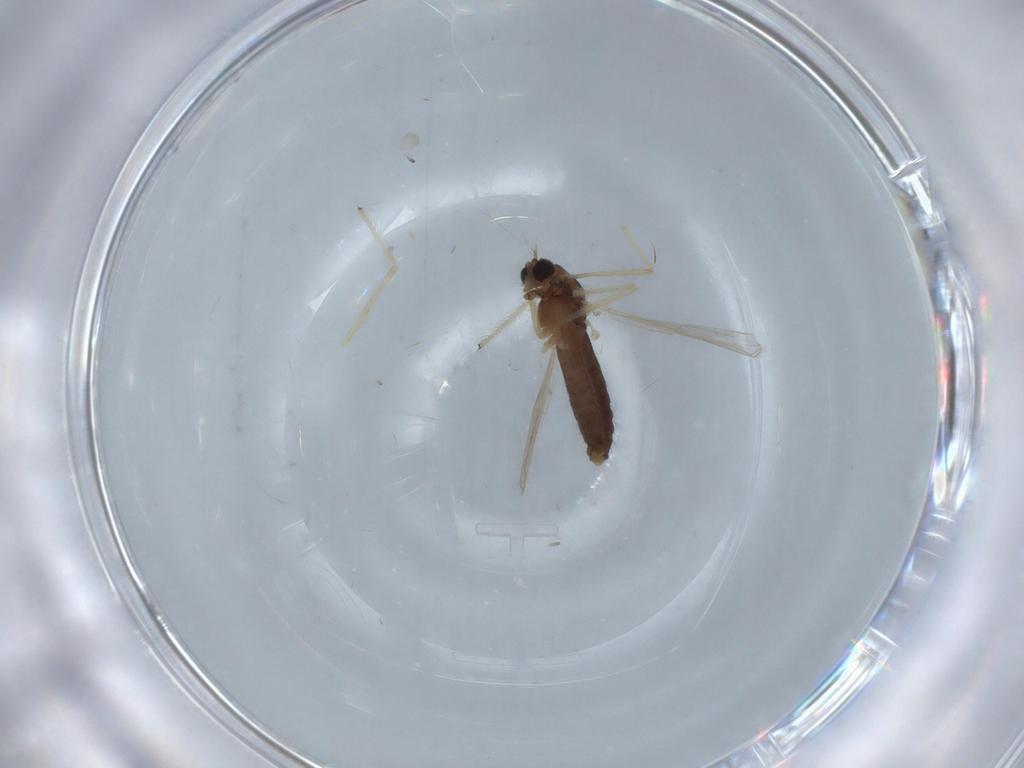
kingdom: Animalia
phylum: Arthropoda
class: Insecta
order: Diptera
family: Chironomidae
